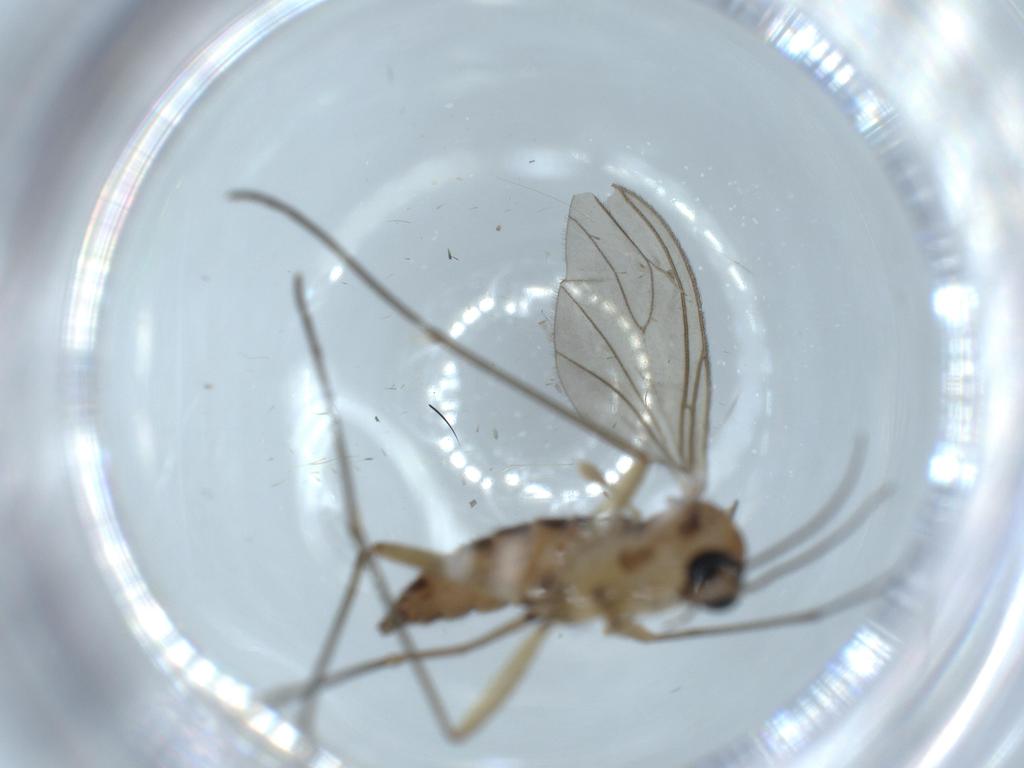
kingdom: Animalia
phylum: Arthropoda
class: Insecta
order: Diptera
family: Sciaridae
